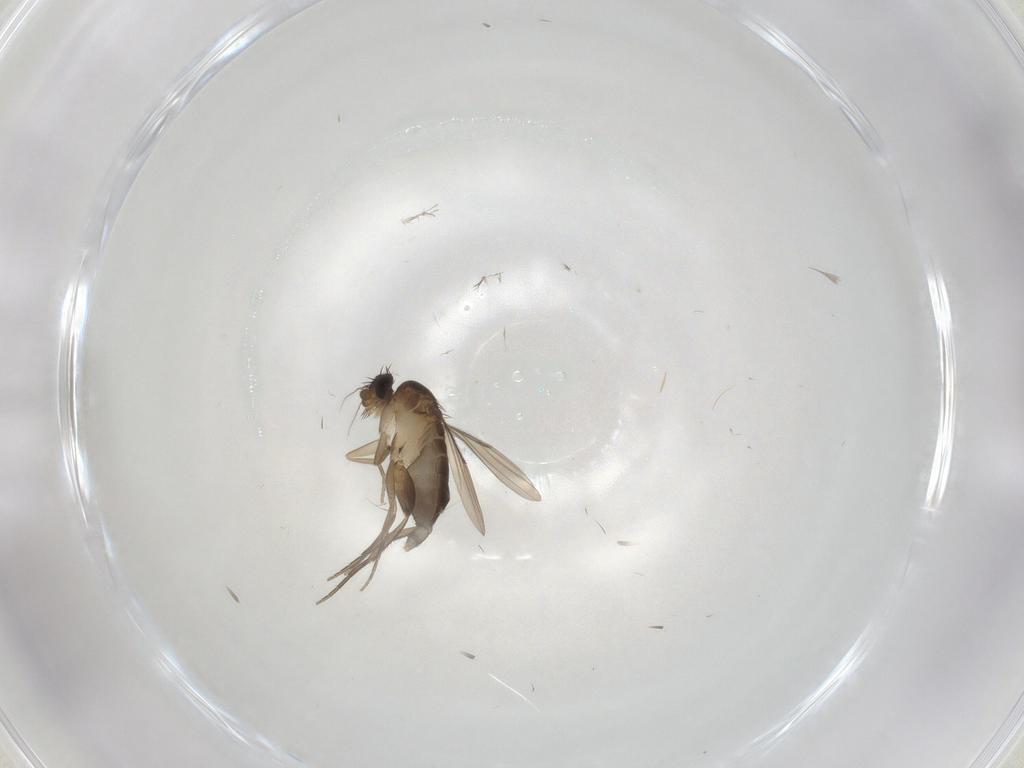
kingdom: Animalia
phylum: Arthropoda
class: Insecta
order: Diptera
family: Phoridae
